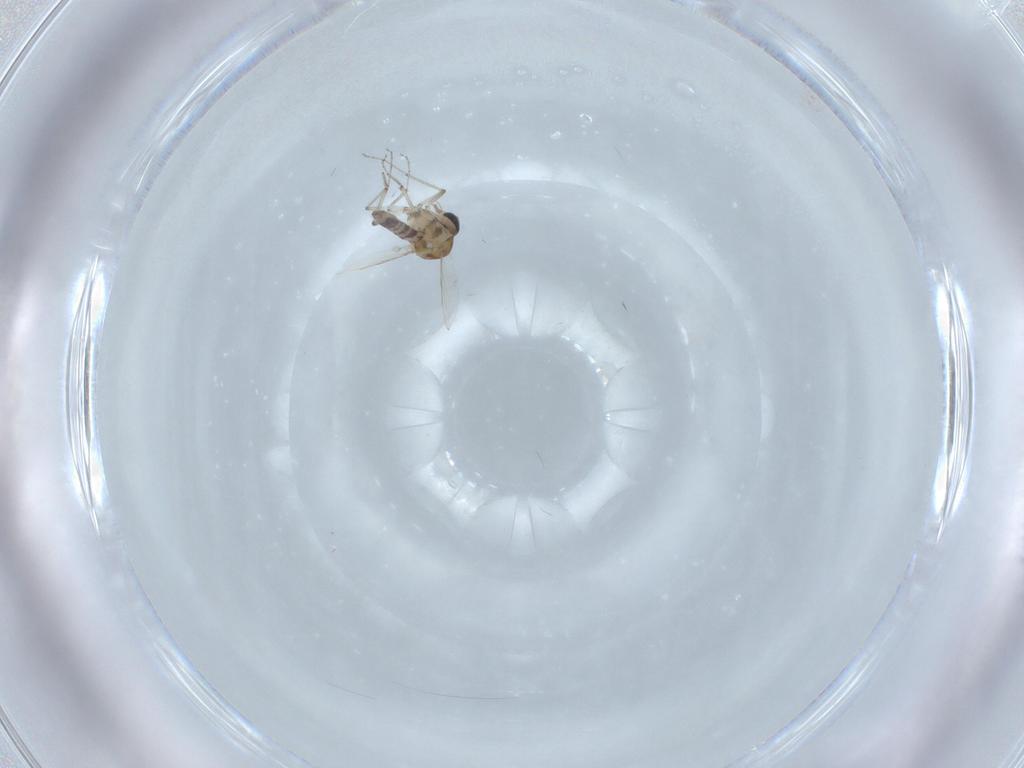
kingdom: Animalia
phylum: Arthropoda
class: Insecta
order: Diptera
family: Ceratopogonidae
